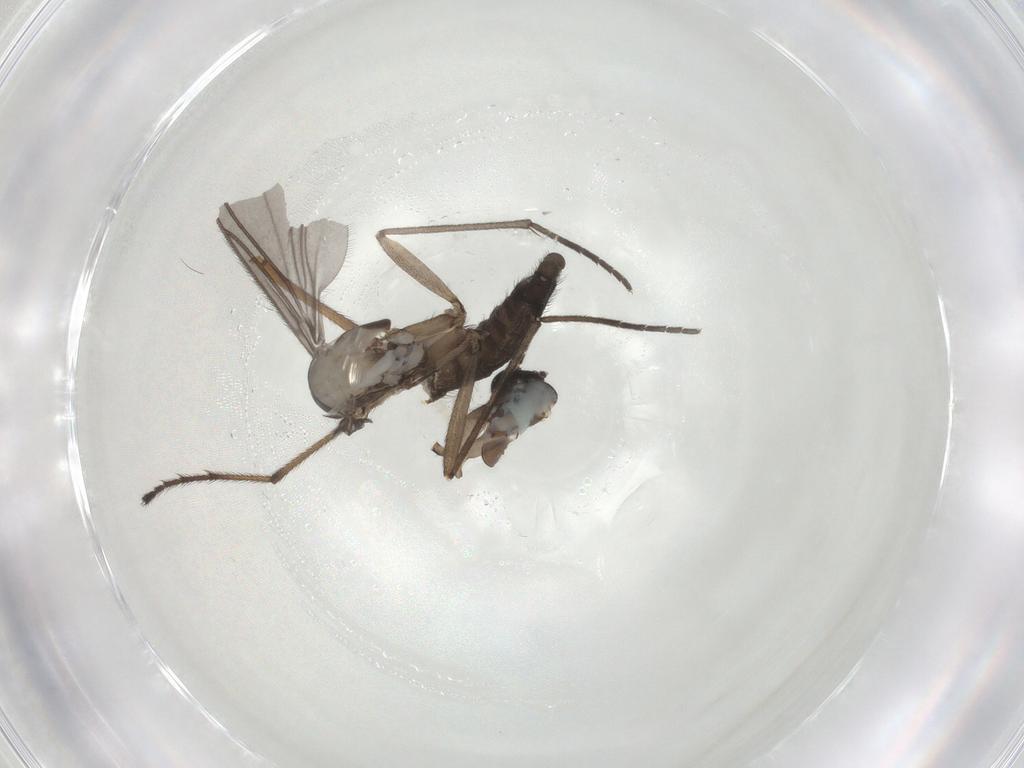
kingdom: Animalia
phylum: Arthropoda
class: Insecta
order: Diptera
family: Sciaridae
